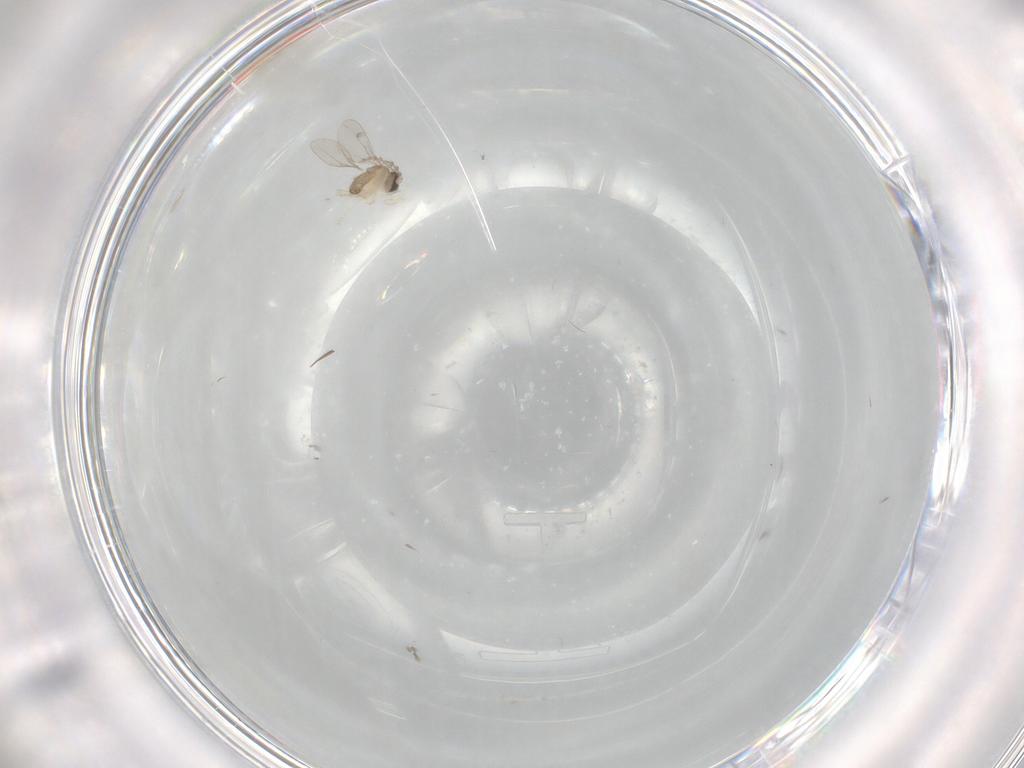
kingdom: Animalia
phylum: Arthropoda
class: Insecta
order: Diptera
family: Cecidomyiidae
